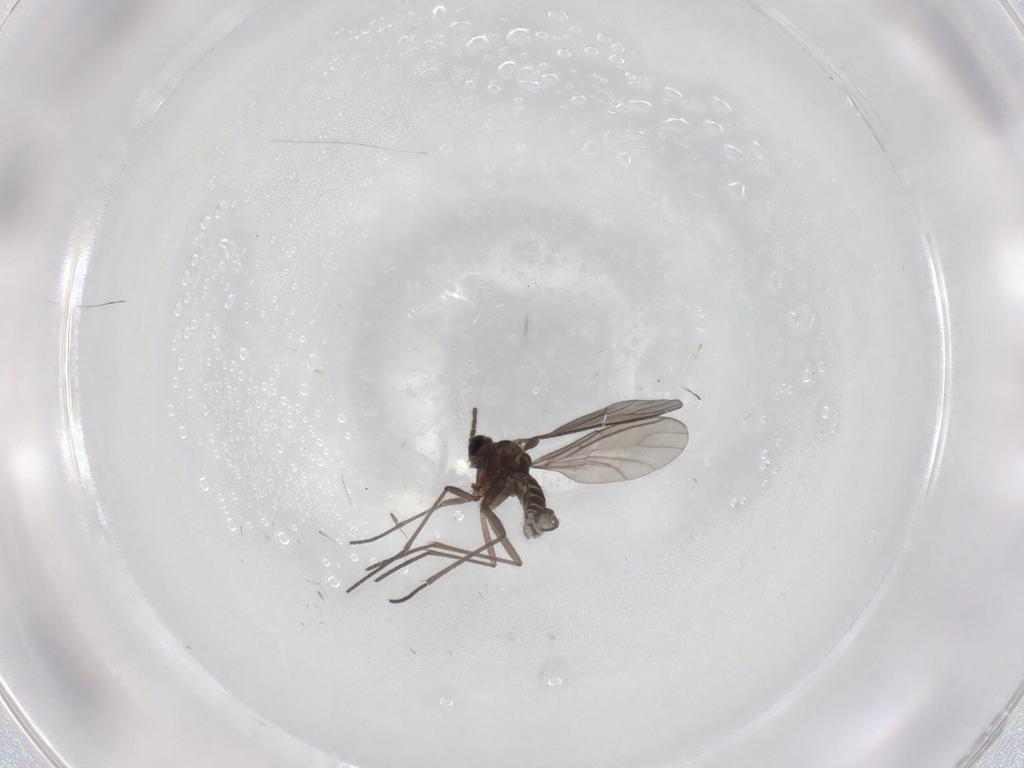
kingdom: Animalia
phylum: Arthropoda
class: Insecta
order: Diptera
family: Sciaridae
